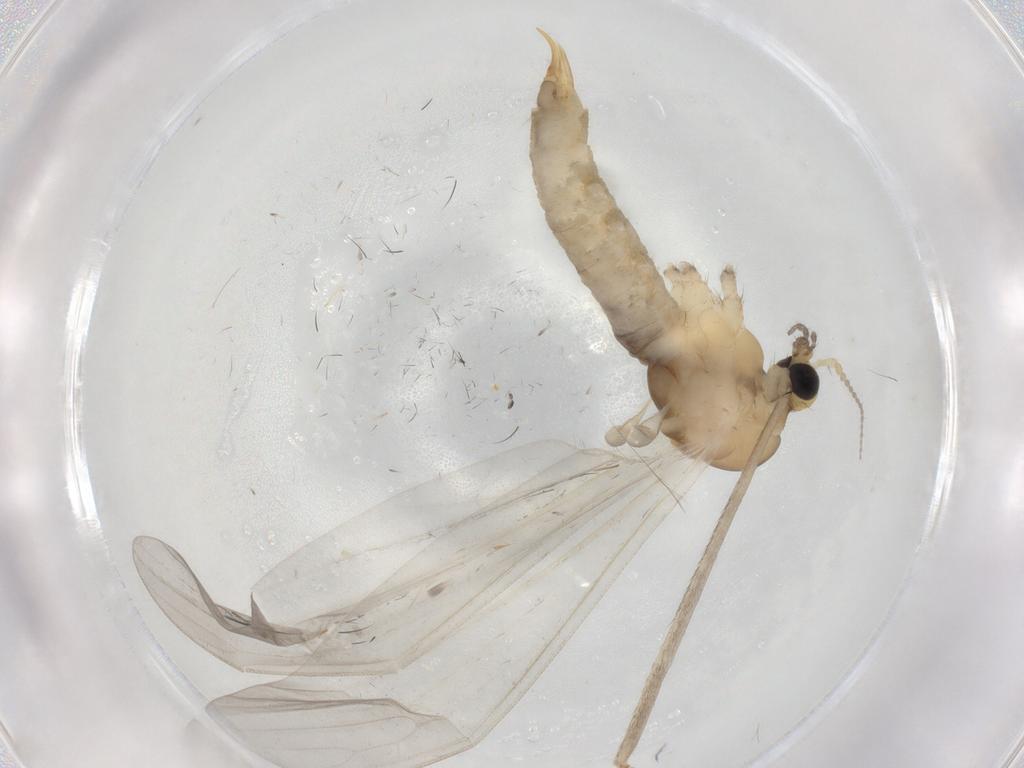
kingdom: Animalia
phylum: Arthropoda
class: Insecta
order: Diptera
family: Limoniidae
